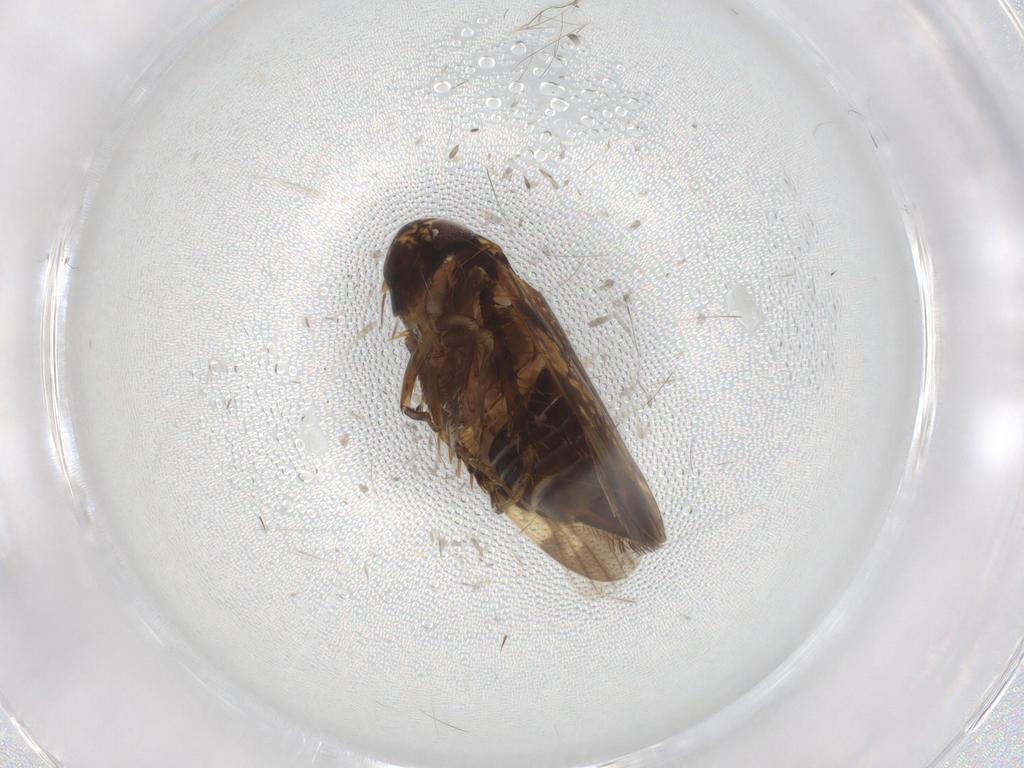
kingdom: Animalia
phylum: Arthropoda
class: Insecta
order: Hemiptera
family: Cicadellidae
